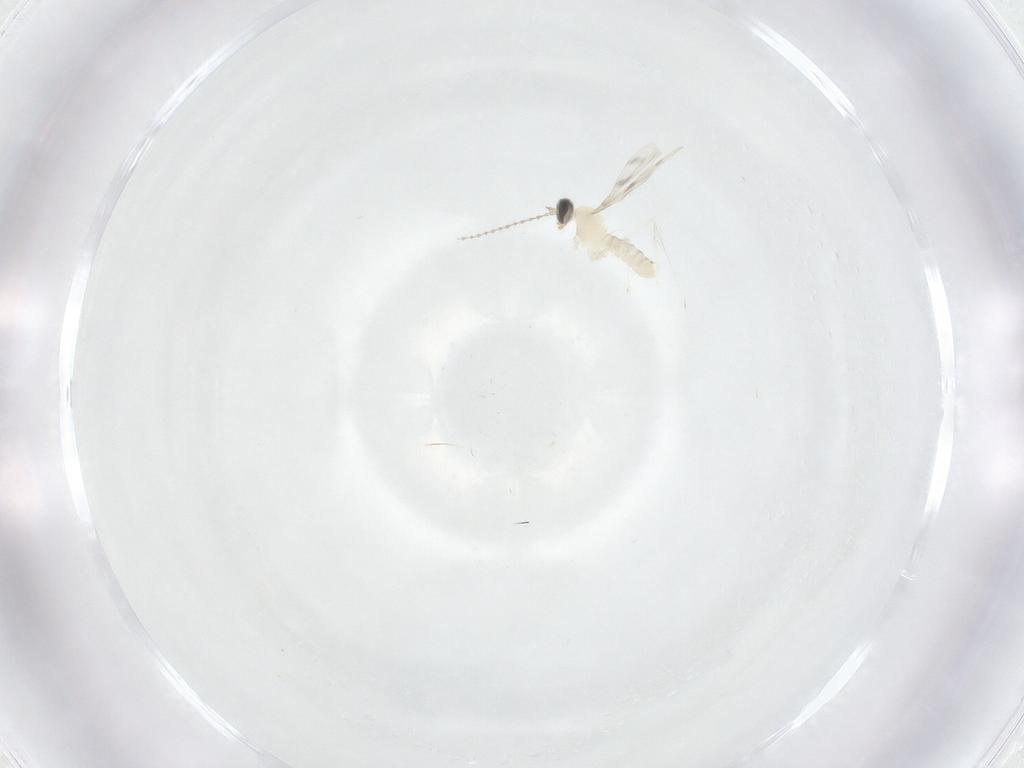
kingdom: Animalia
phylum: Arthropoda
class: Insecta
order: Diptera
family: Cecidomyiidae
